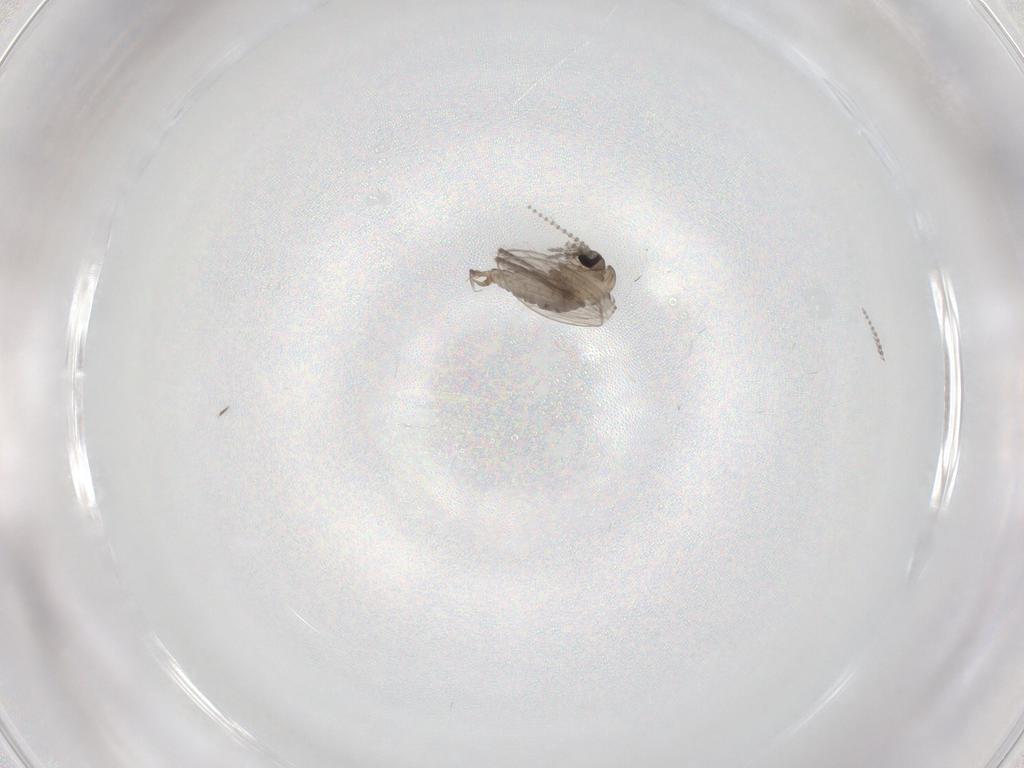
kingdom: Animalia
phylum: Arthropoda
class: Insecta
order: Diptera
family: Psychodidae
